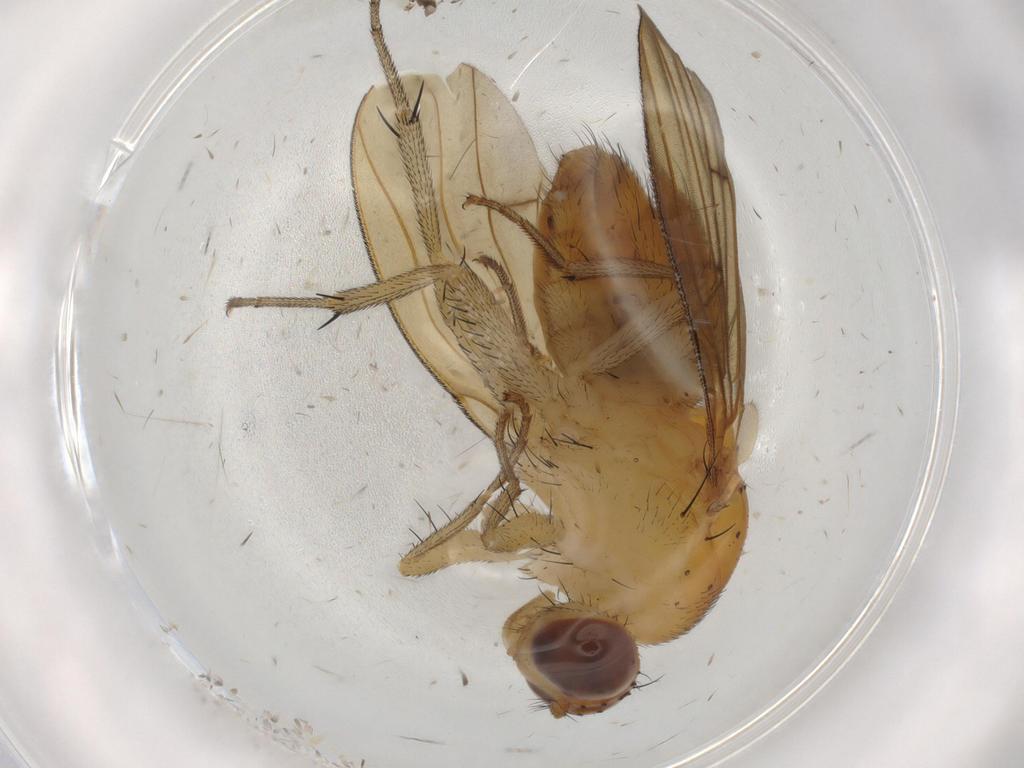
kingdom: Animalia
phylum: Arthropoda
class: Insecta
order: Diptera
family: Lauxaniidae
